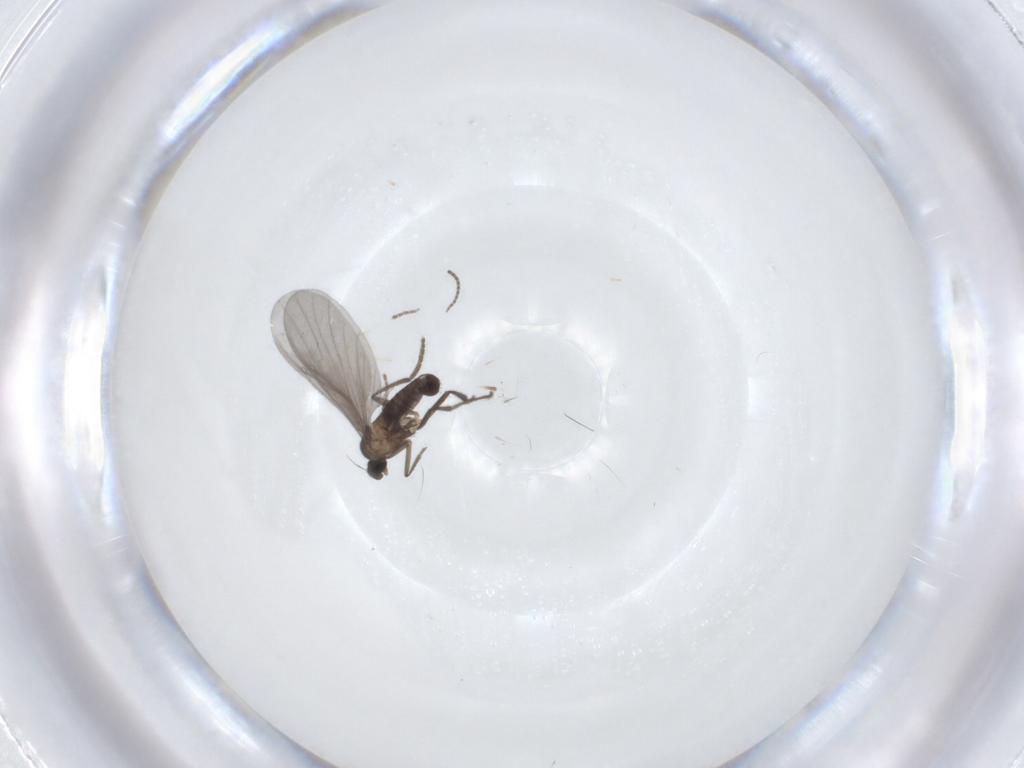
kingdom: Animalia
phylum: Arthropoda
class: Insecta
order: Diptera
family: Phoridae
